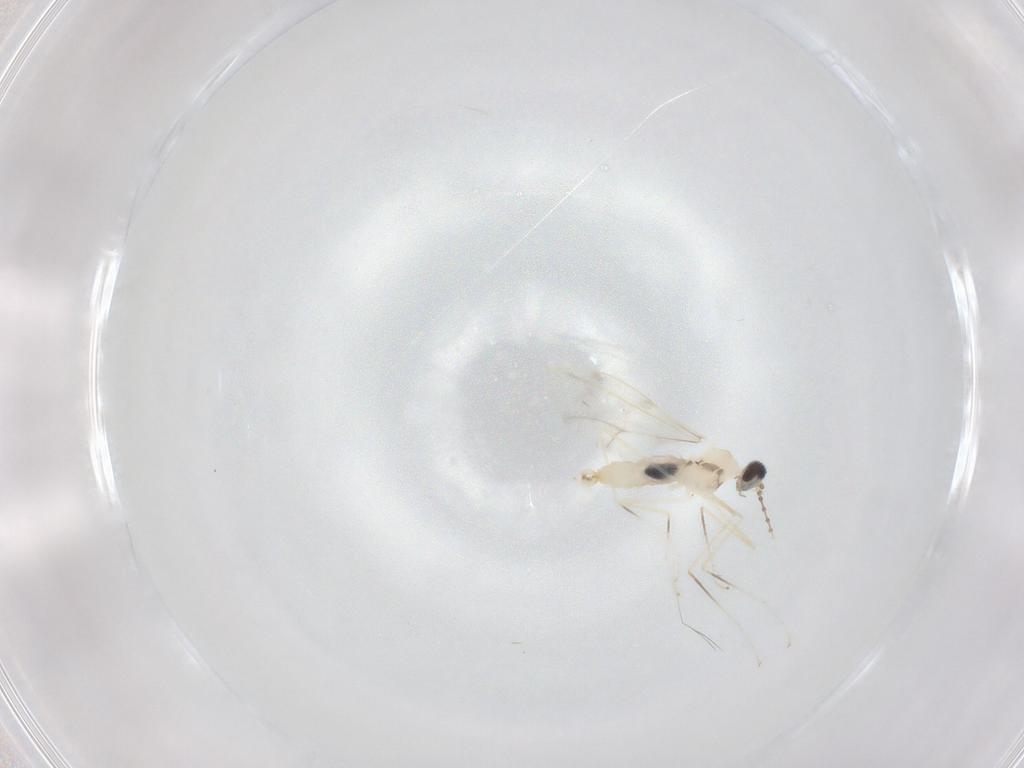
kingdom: Animalia
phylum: Arthropoda
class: Insecta
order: Diptera
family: Cecidomyiidae
